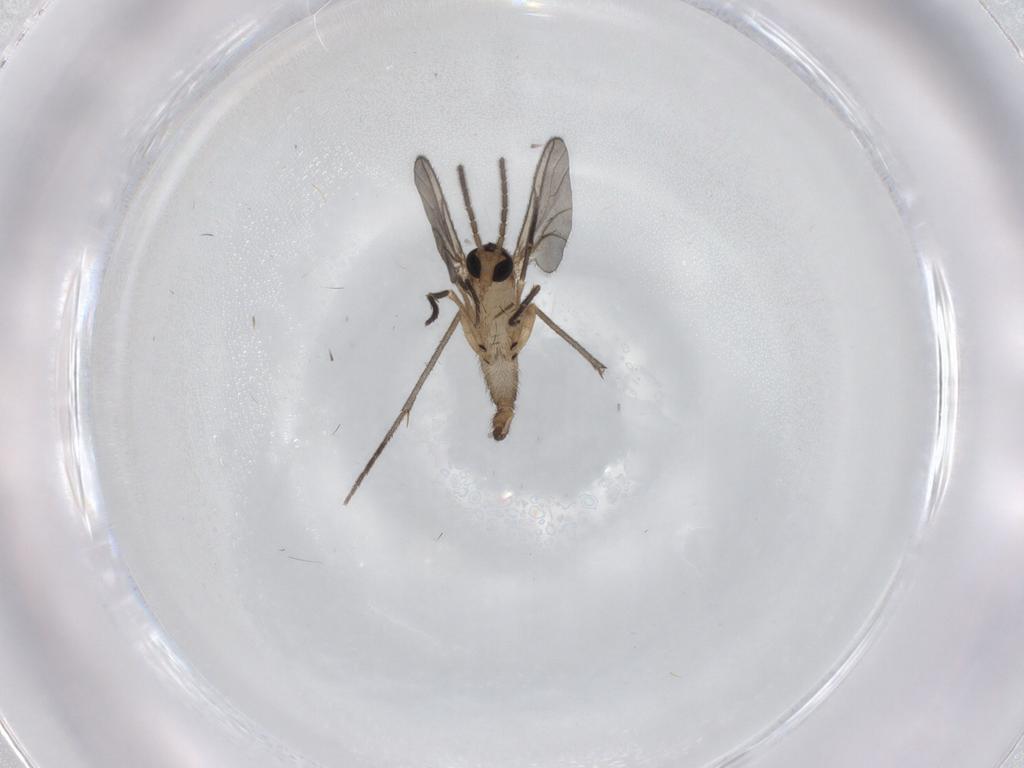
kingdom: Animalia
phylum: Arthropoda
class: Insecta
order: Diptera
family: Sciaridae
